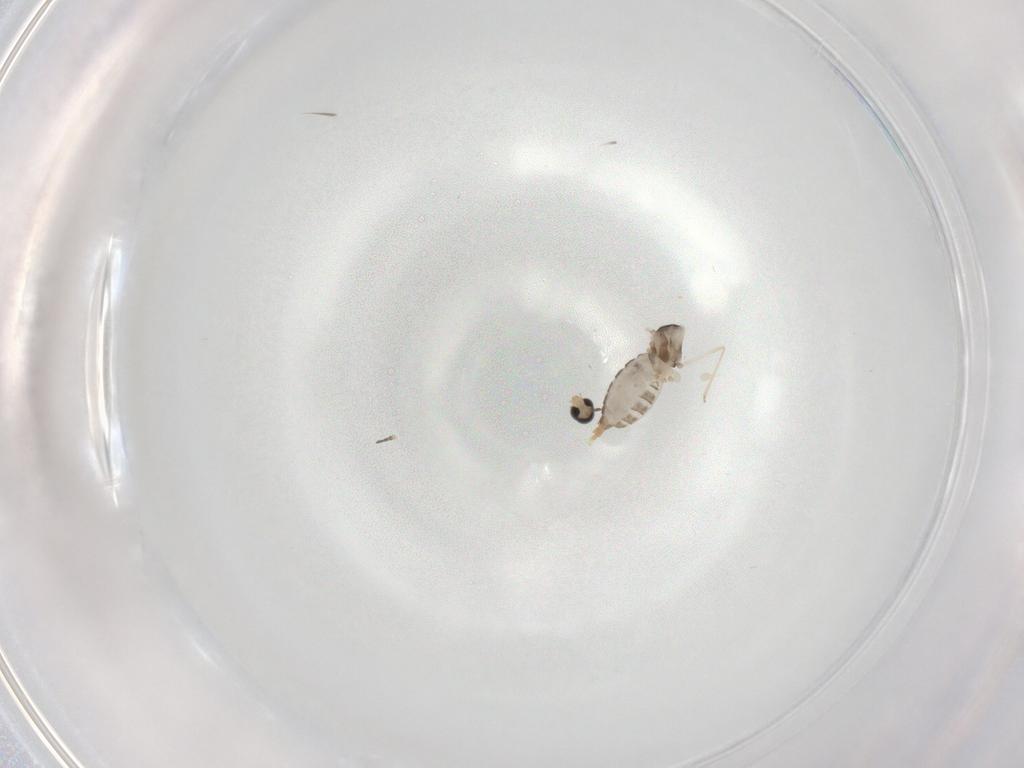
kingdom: Animalia
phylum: Arthropoda
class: Insecta
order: Diptera
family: Cecidomyiidae
